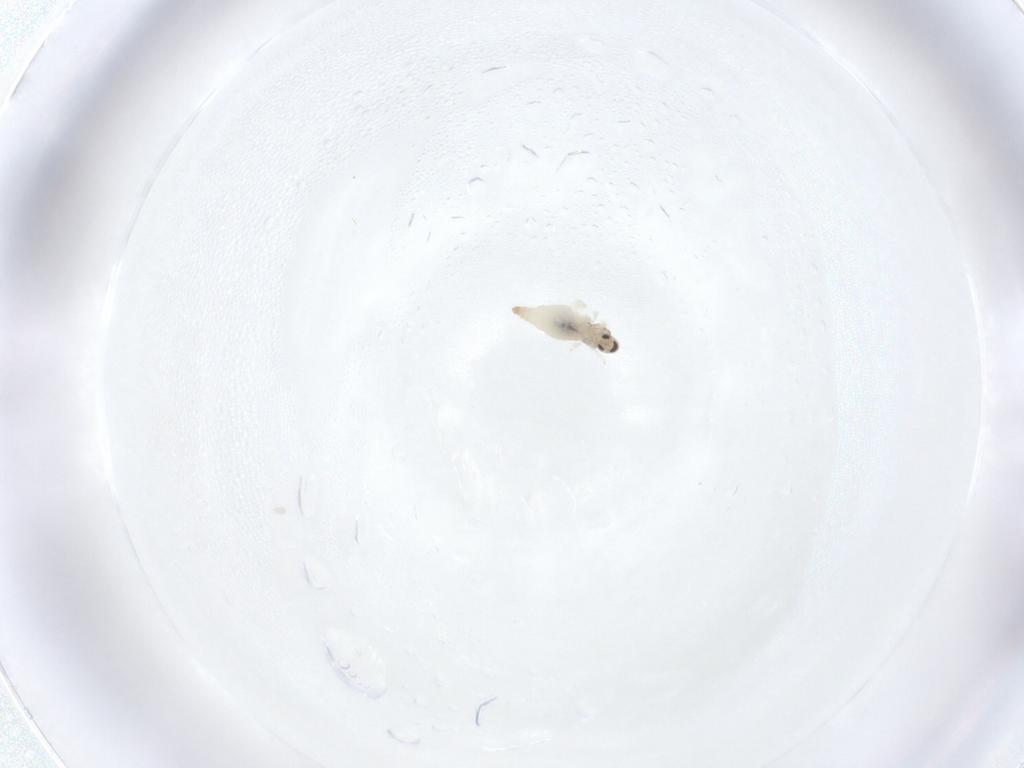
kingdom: Animalia
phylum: Arthropoda
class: Insecta
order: Diptera
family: Cecidomyiidae
